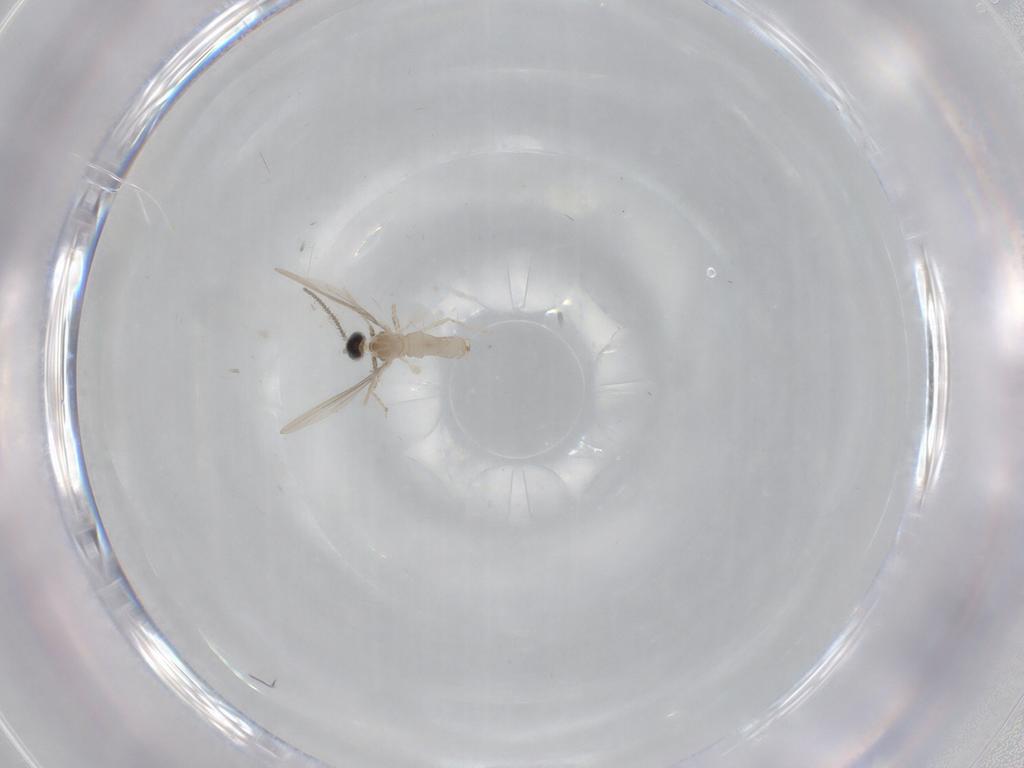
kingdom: Animalia
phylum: Arthropoda
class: Insecta
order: Diptera
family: Cecidomyiidae
